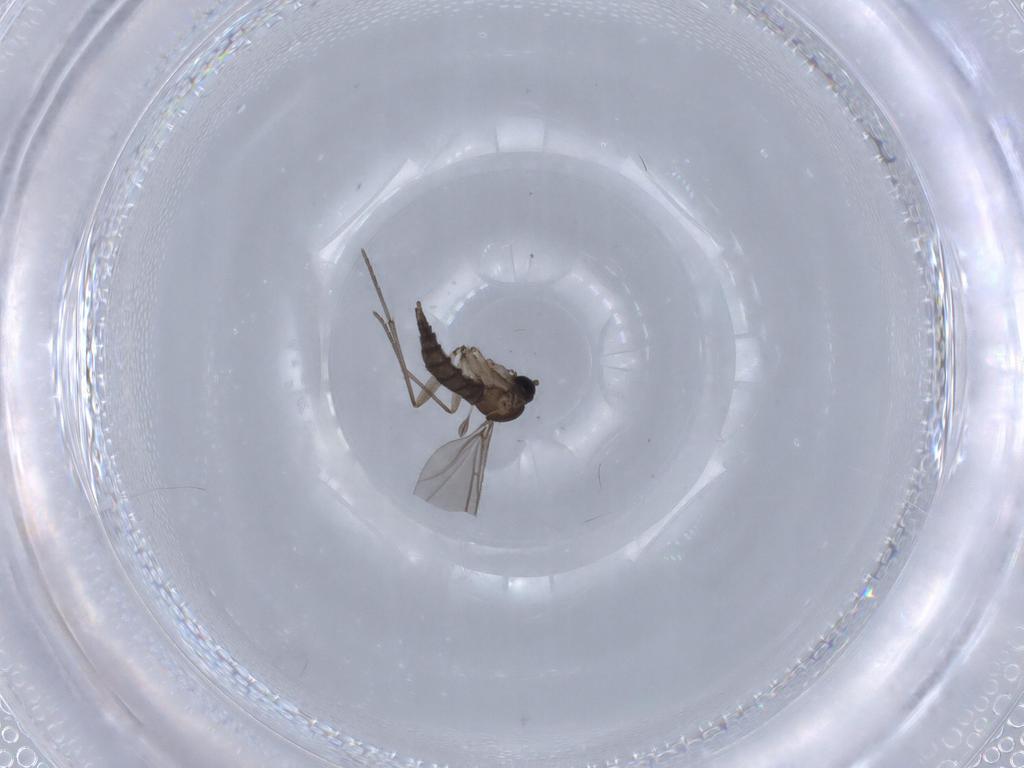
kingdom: Animalia
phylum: Arthropoda
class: Insecta
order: Diptera
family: Sciaridae
